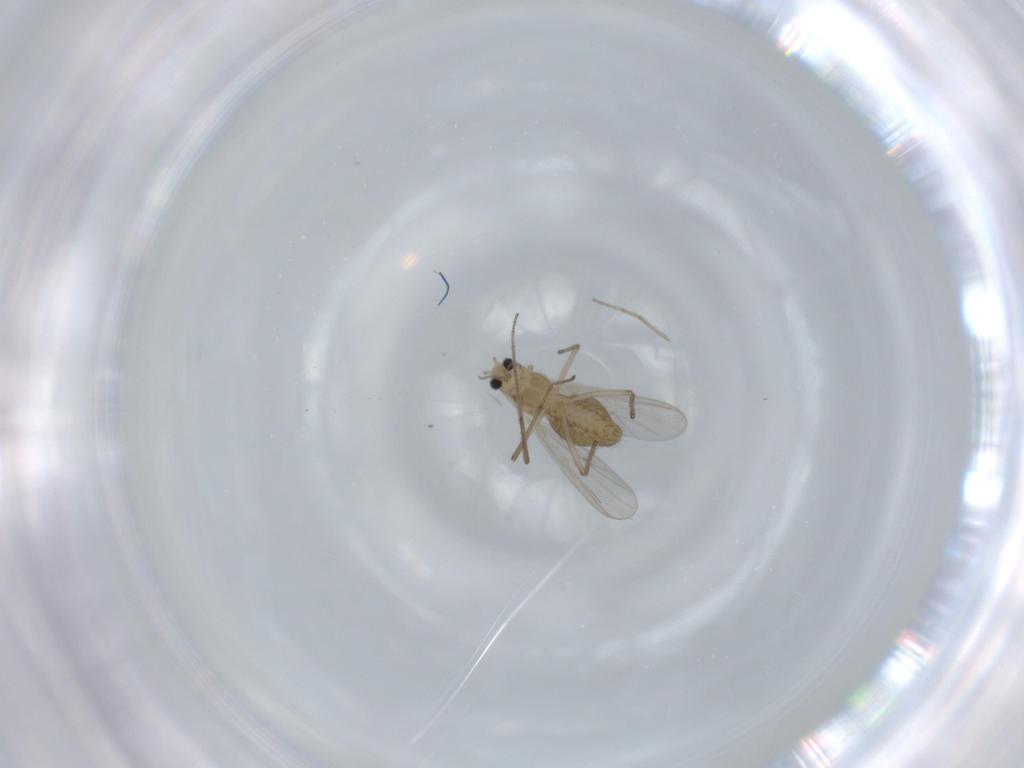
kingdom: Animalia
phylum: Arthropoda
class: Insecta
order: Diptera
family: Chironomidae
